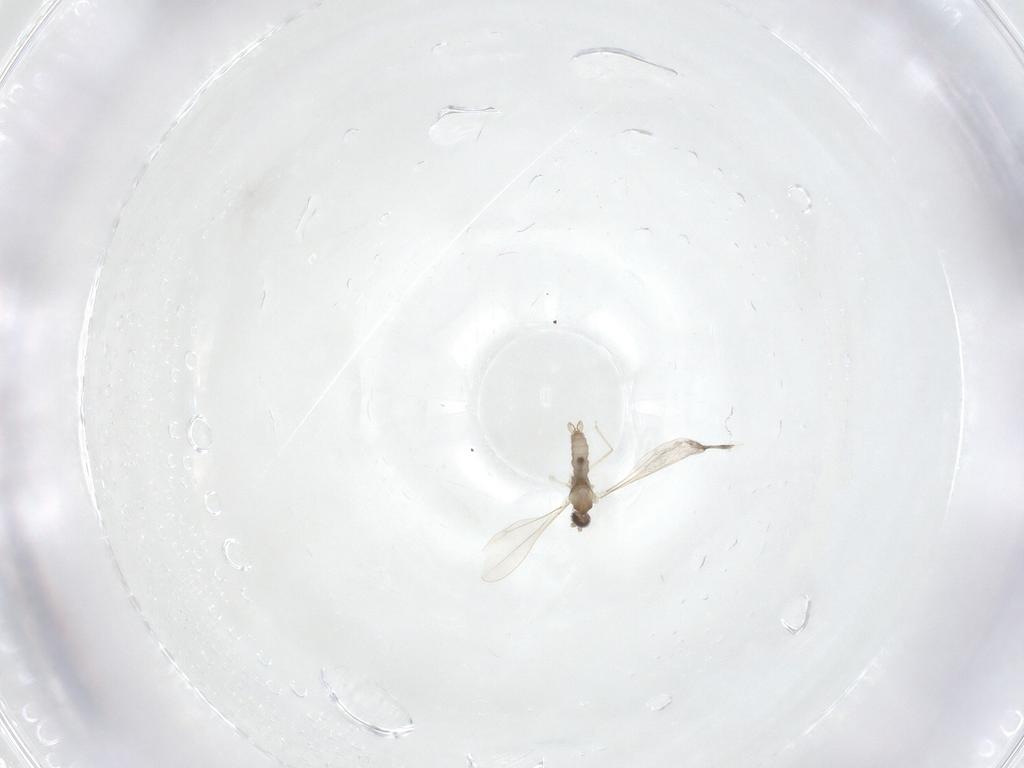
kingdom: Animalia
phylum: Arthropoda
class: Insecta
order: Diptera
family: Cecidomyiidae
